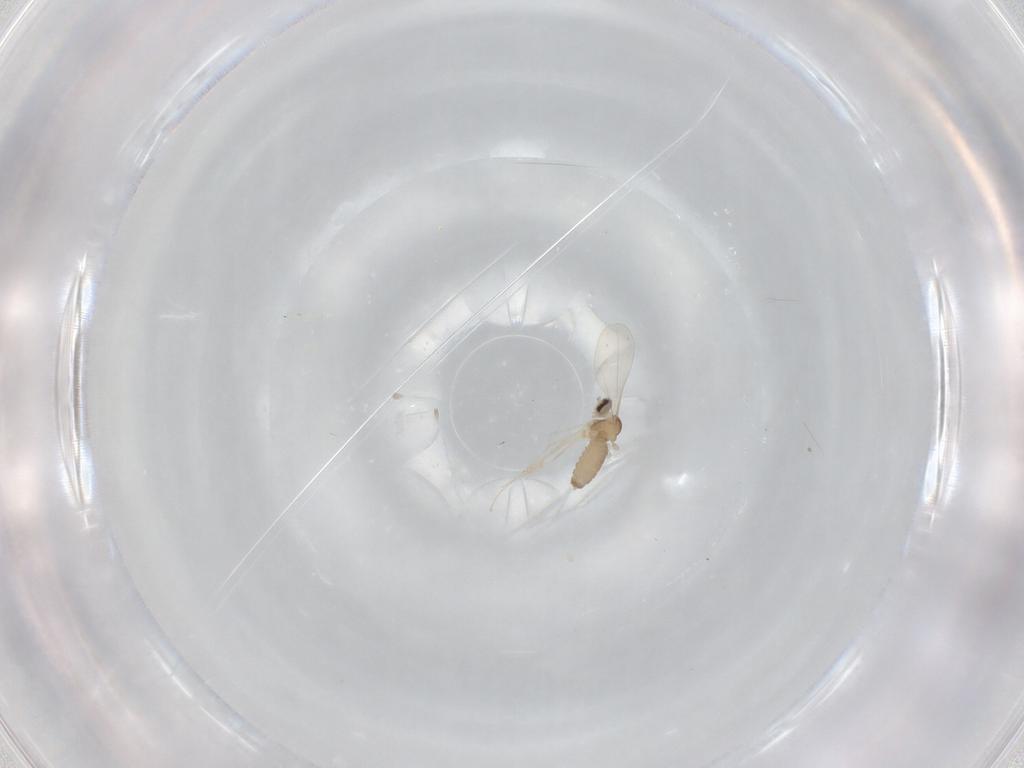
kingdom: Animalia
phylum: Arthropoda
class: Insecta
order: Diptera
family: Cecidomyiidae
